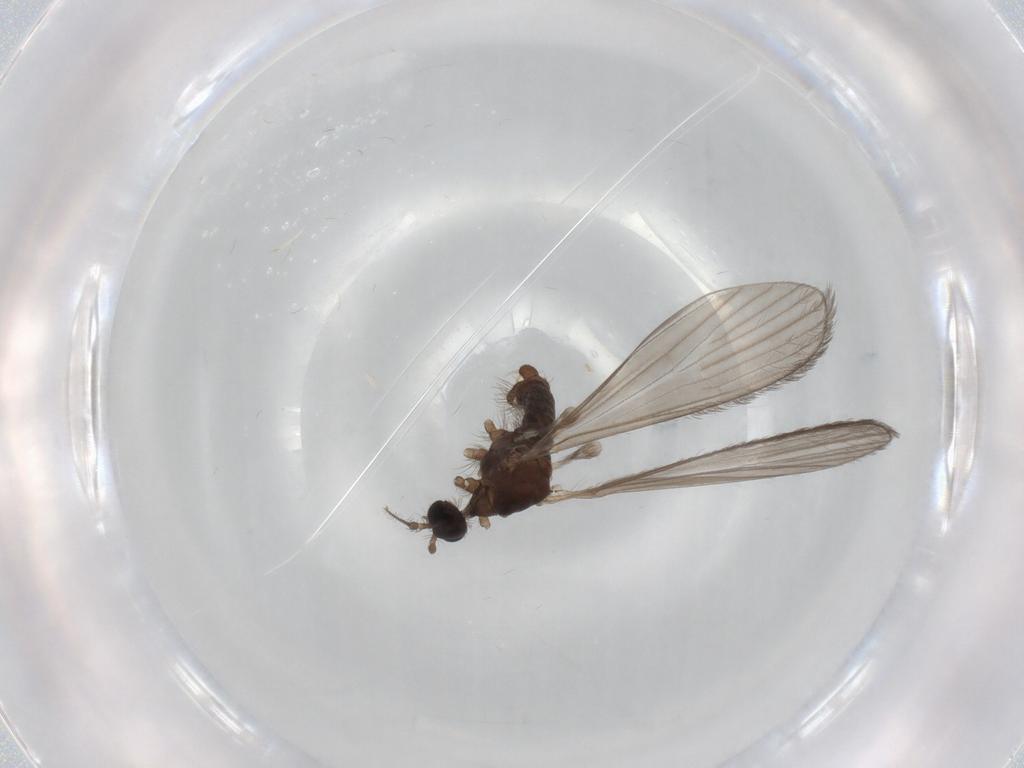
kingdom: Animalia
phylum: Arthropoda
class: Insecta
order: Diptera
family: Limoniidae
